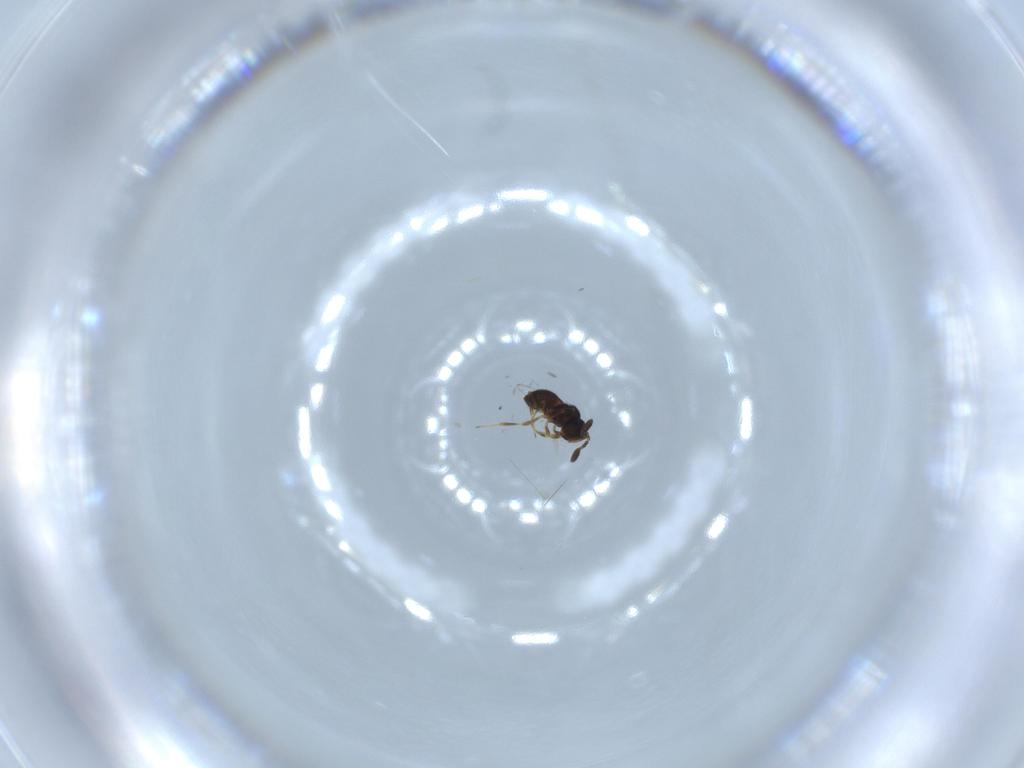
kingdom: Animalia
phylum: Arthropoda
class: Insecta
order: Hymenoptera
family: Scelionidae
